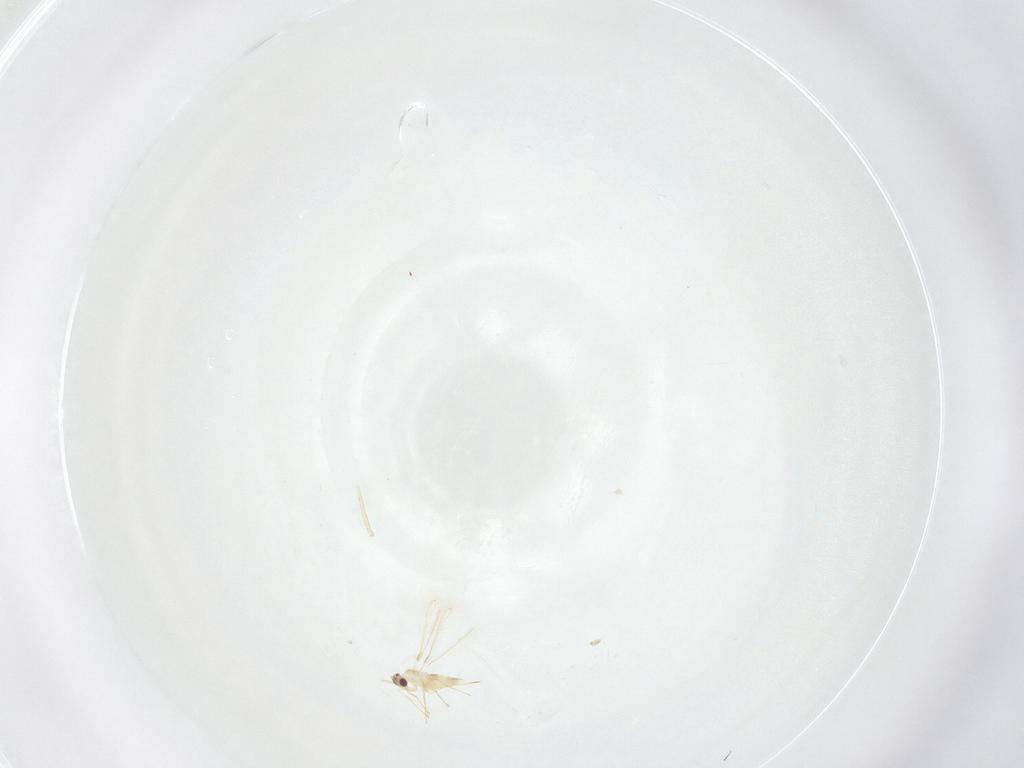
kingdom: Animalia
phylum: Arthropoda
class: Insecta
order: Hymenoptera
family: Mymaridae
